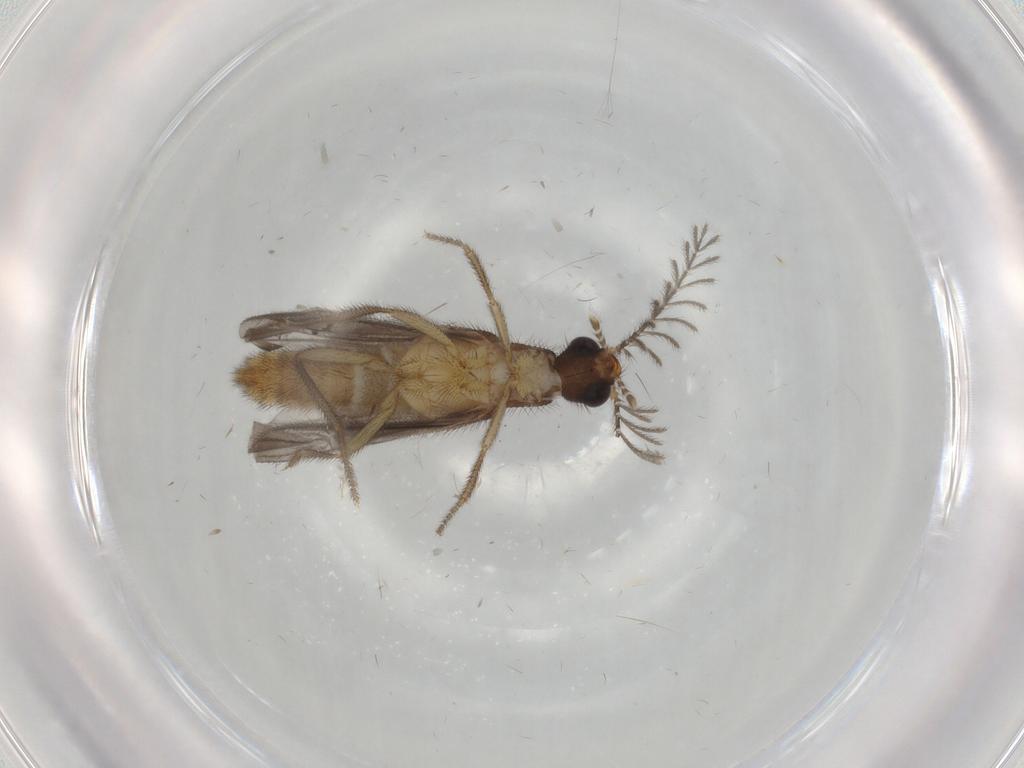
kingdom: Animalia
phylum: Arthropoda
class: Insecta
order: Coleoptera
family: Phengodidae
